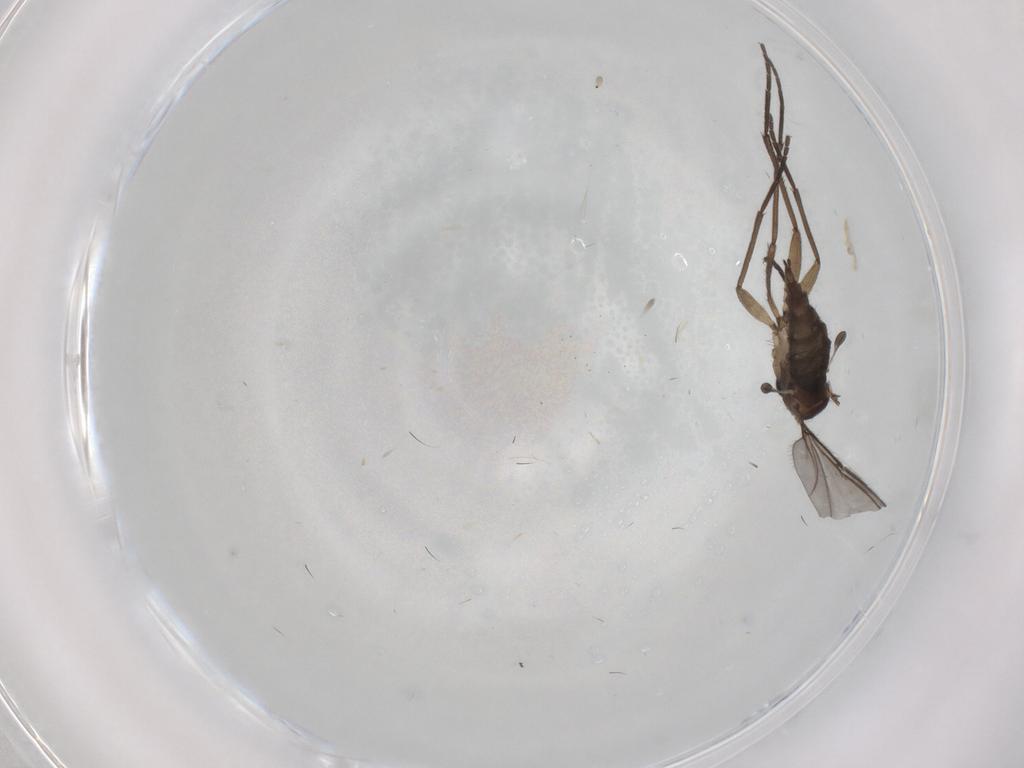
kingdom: Animalia
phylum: Arthropoda
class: Insecta
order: Diptera
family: Sciaridae
